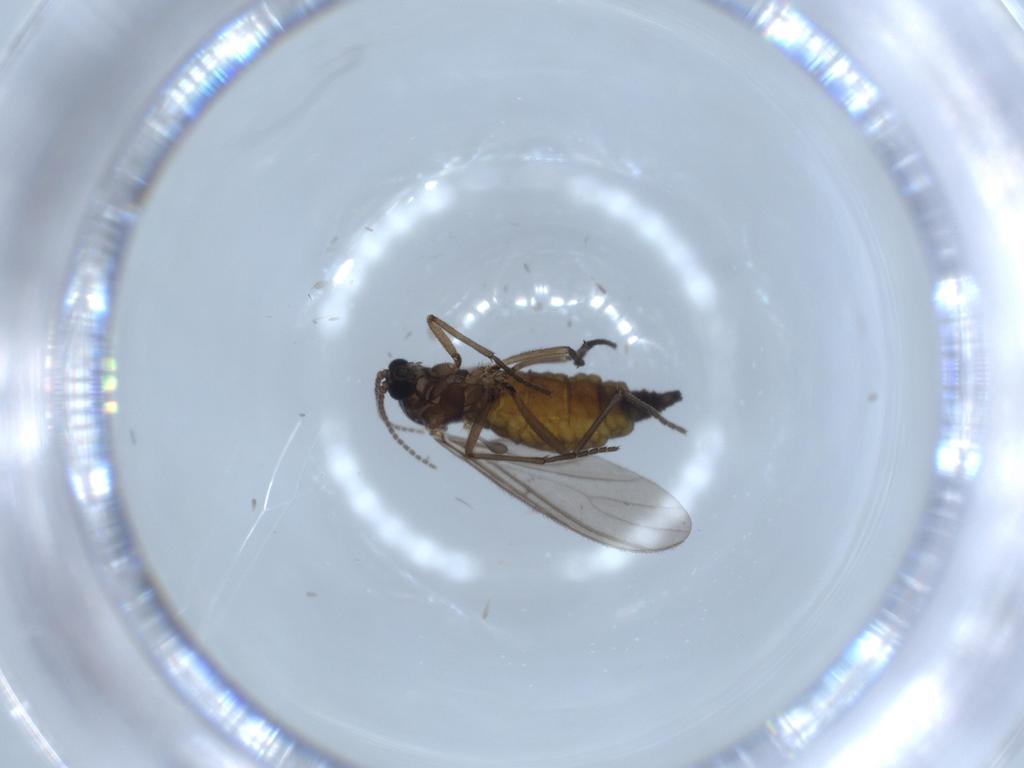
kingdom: Animalia
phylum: Arthropoda
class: Insecta
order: Diptera
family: Sciaridae
